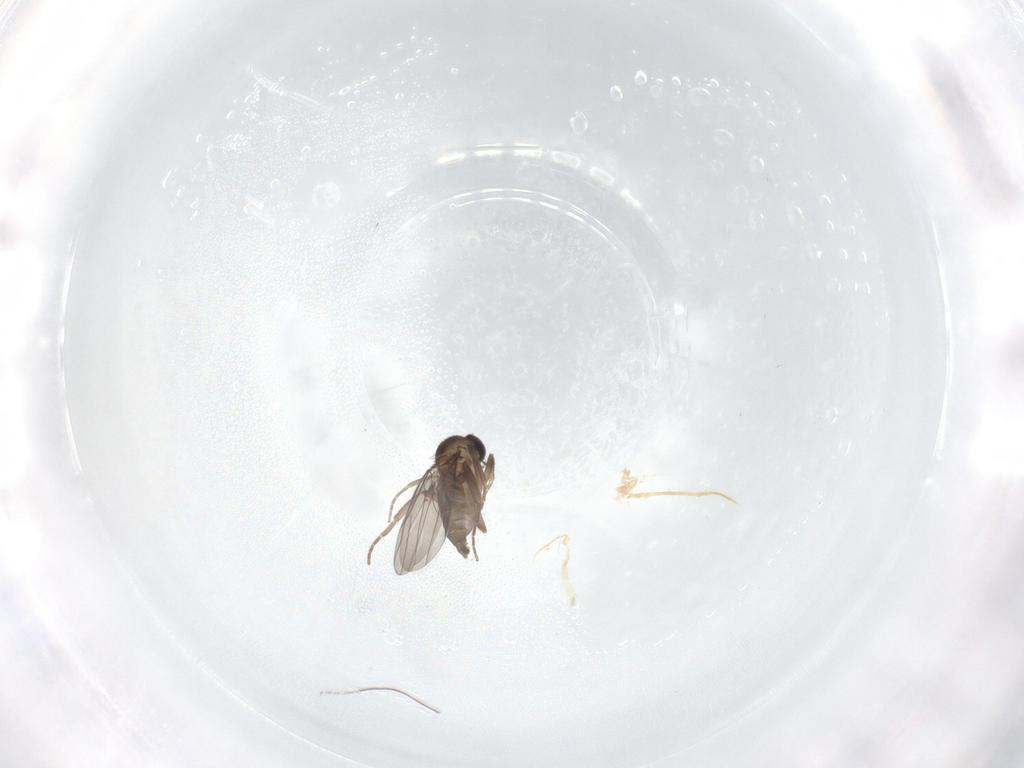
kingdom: Animalia
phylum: Arthropoda
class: Insecta
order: Diptera
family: Phoridae
